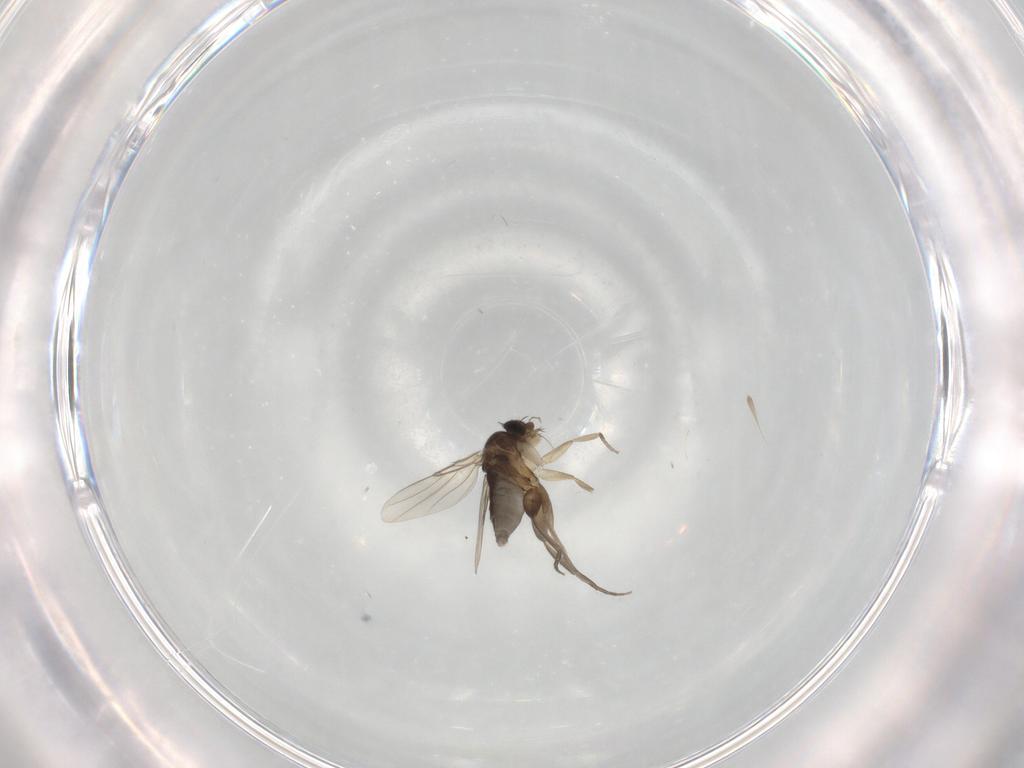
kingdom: Animalia
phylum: Arthropoda
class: Insecta
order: Diptera
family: Phoridae
